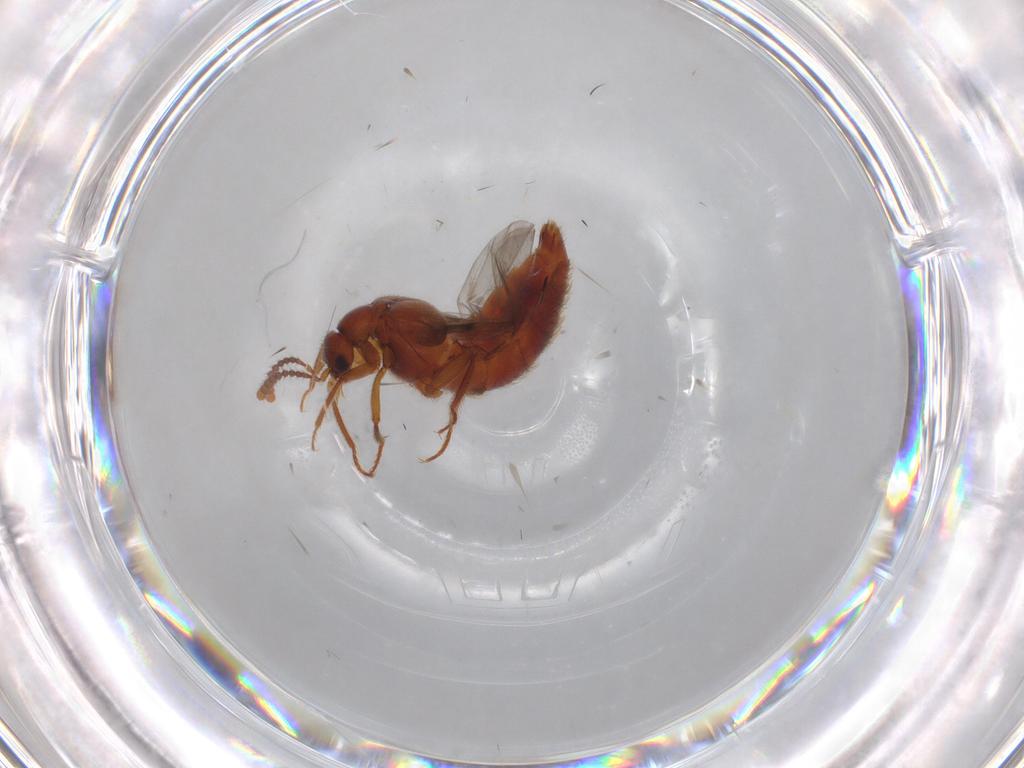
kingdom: Animalia
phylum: Arthropoda
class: Insecta
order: Coleoptera
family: Staphylinidae
